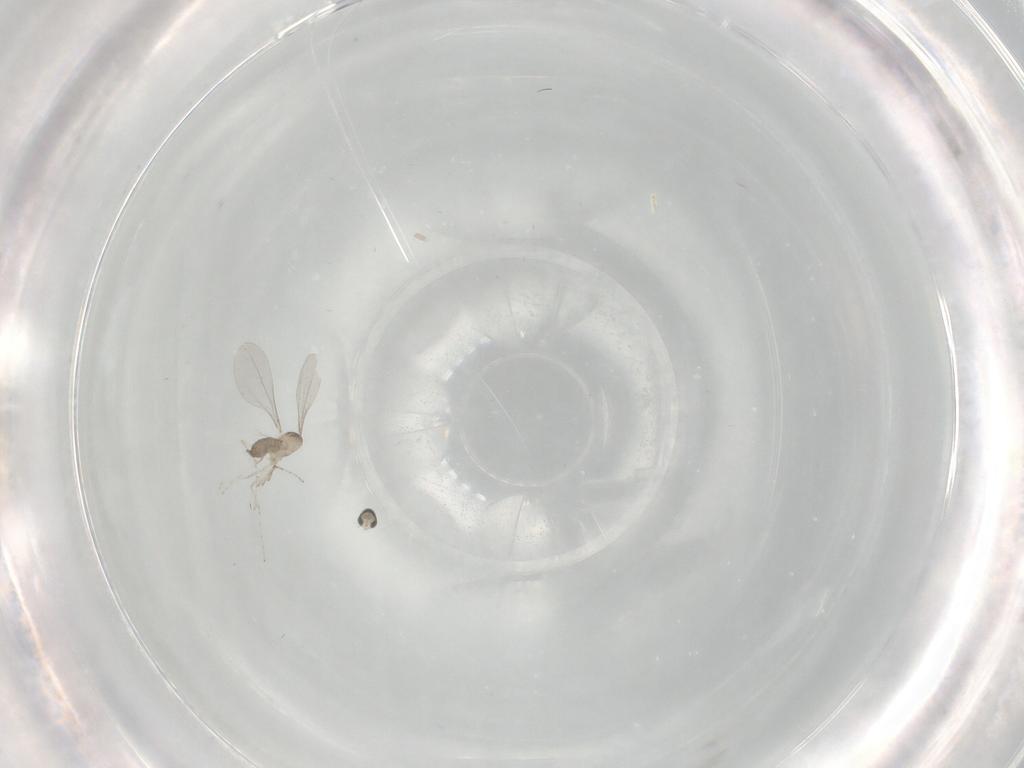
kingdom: Animalia
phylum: Arthropoda
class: Insecta
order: Diptera
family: Cecidomyiidae
